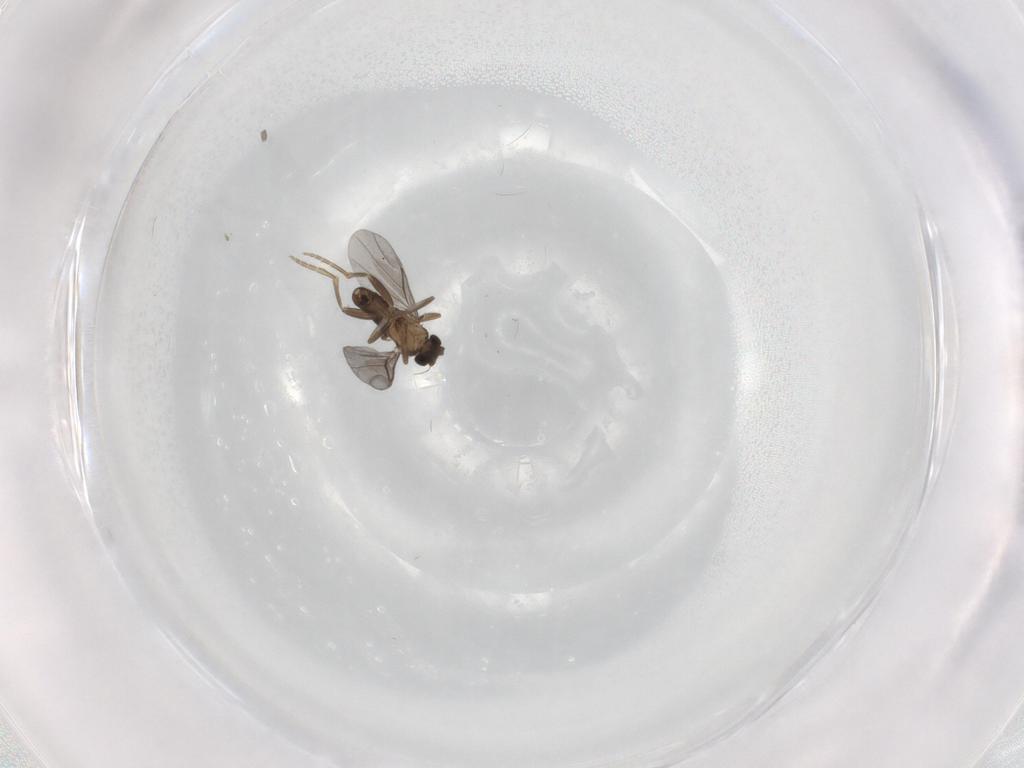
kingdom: Animalia
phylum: Arthropoda
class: Insecta
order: Diptera
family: Phoridae
